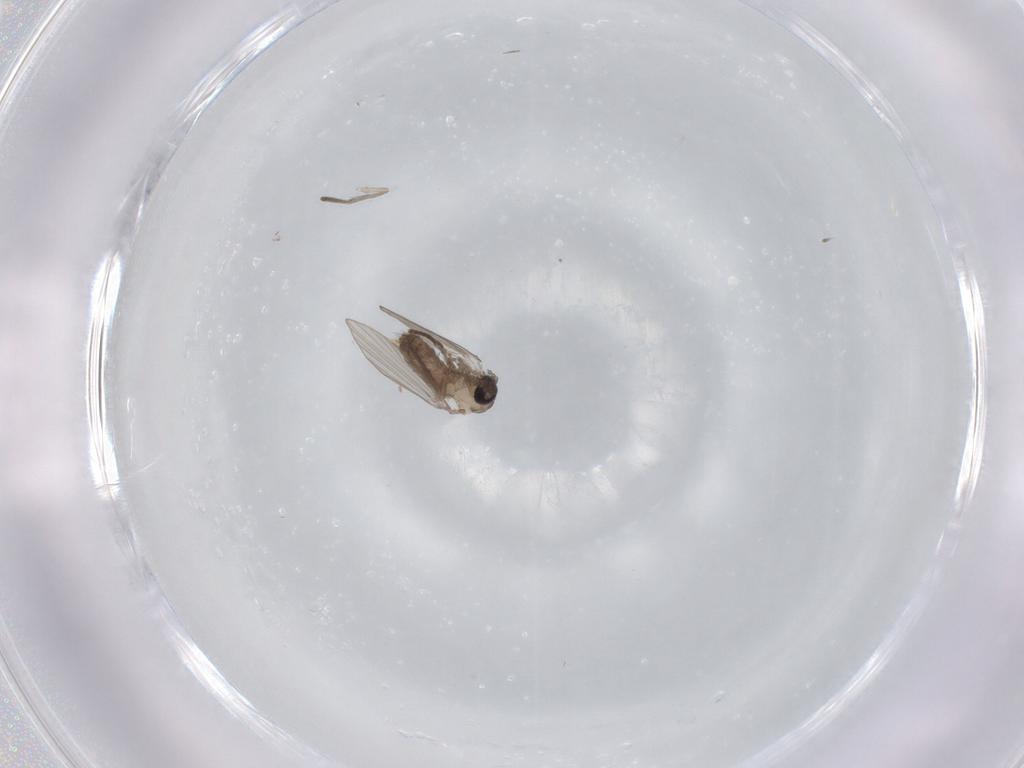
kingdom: Animalia
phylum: Arthropoda
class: Insecta
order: Diptera
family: Psychodidae
